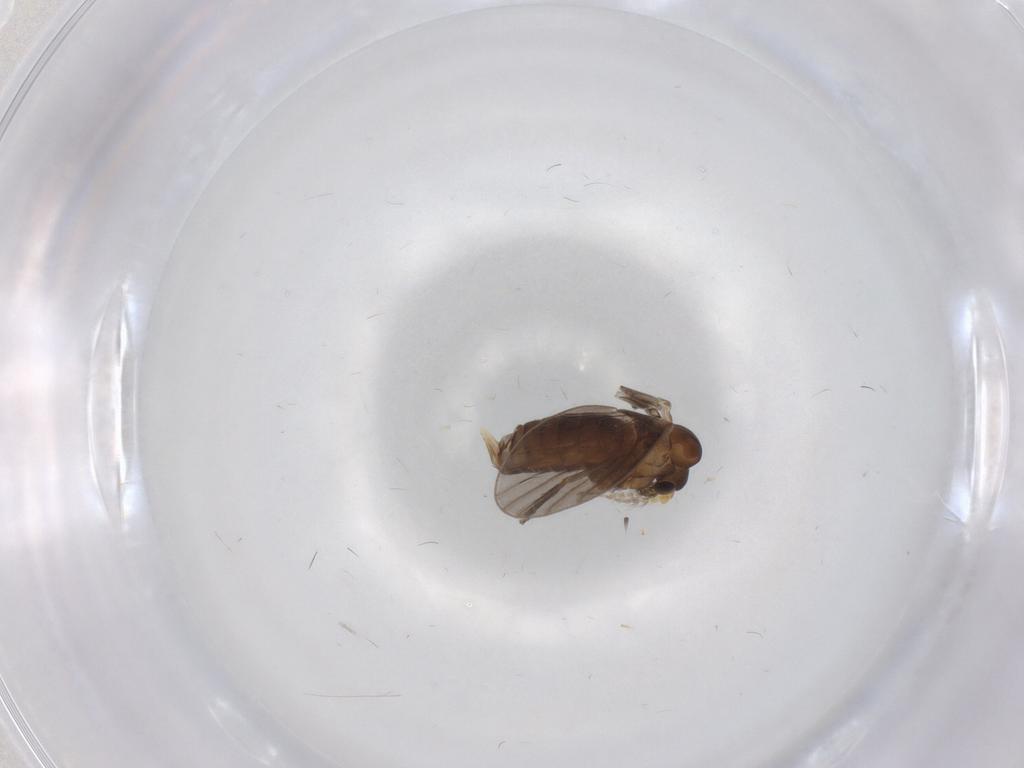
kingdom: Animalia
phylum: Arthropoda
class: Insecta
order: Diptera
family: Psychodidae
